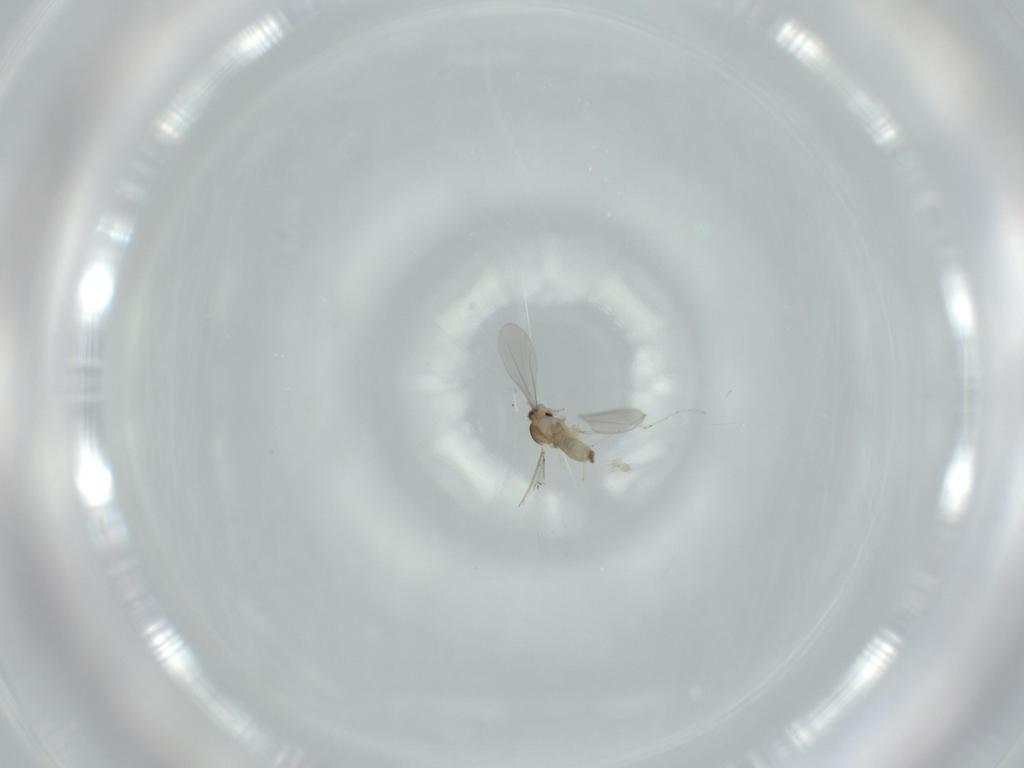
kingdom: Animalia
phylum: Arthropoda
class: Insecta
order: Diptera
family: Cecidomyiidae
